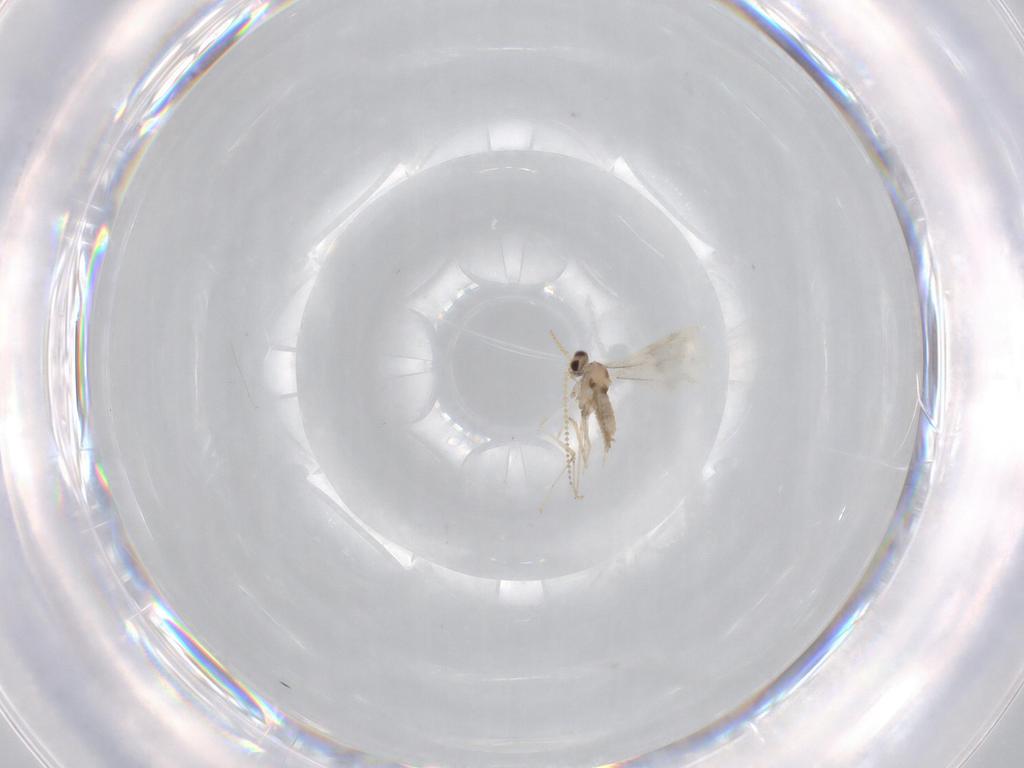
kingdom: Animalia
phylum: Arthropoda
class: Insecta
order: Diptera
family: Cecidomyiidae
